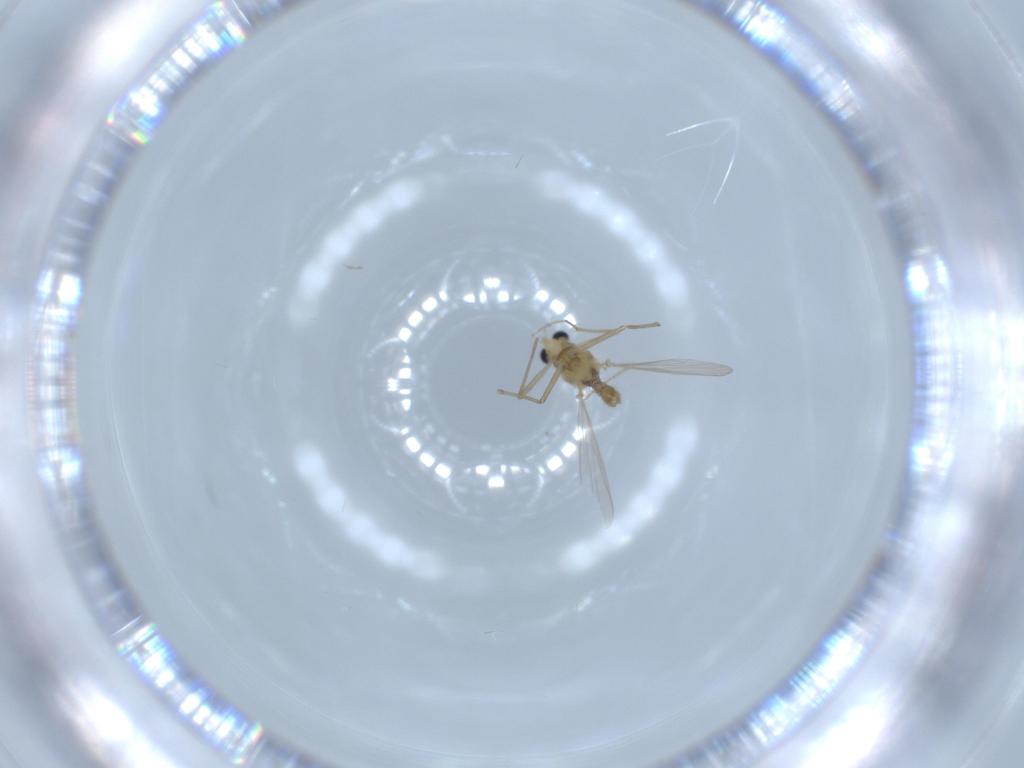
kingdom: Animalia
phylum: Arthropoda
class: Insecta
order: Diptera
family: Chironomidae
